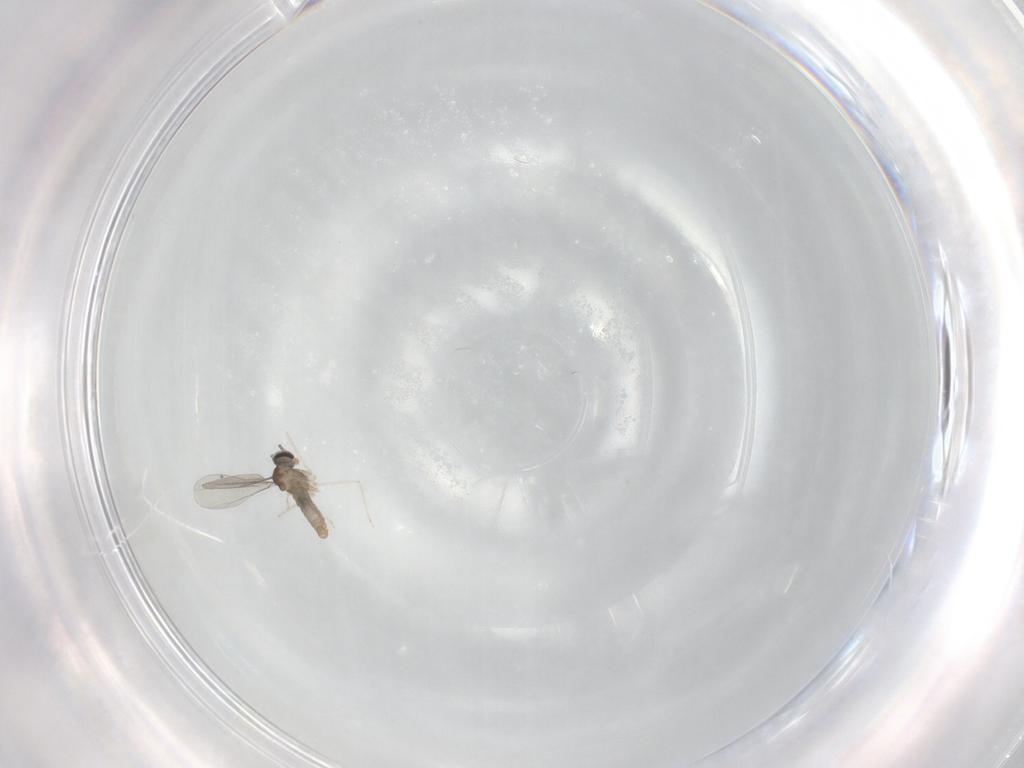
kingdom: Animalia
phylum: Arthropoda
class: Insecta
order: Diptera
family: Cecidomyiidae
